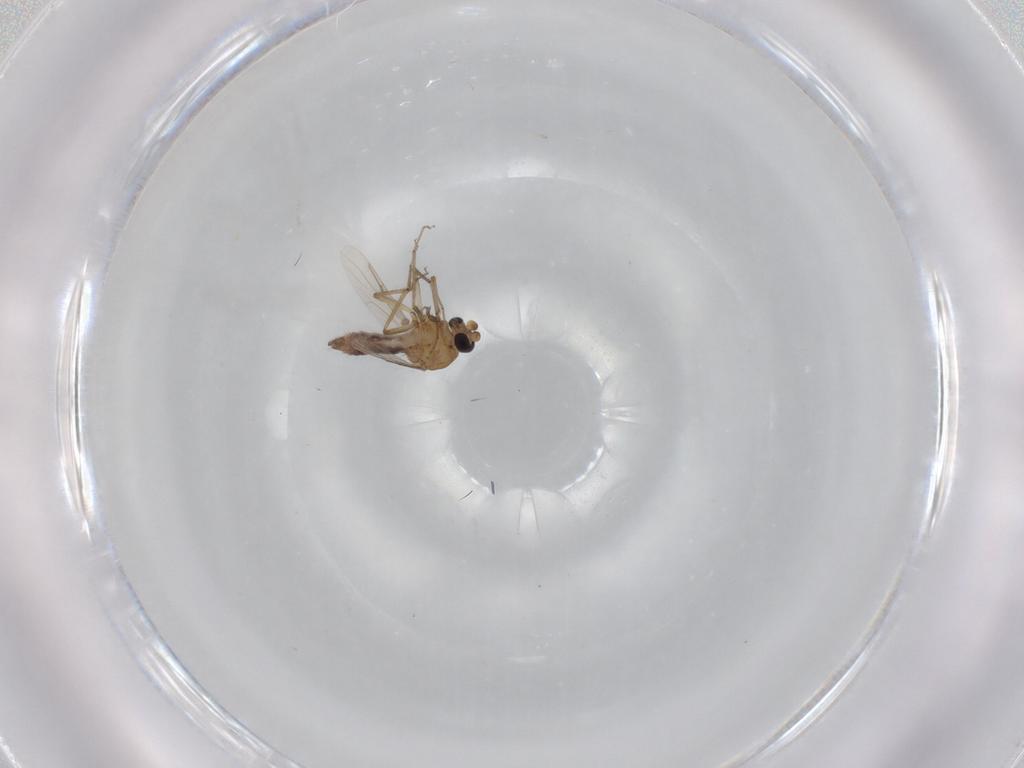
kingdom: Animalia
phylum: Arthropoda
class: Insecta
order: Diptera
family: Ceratopogonidae
